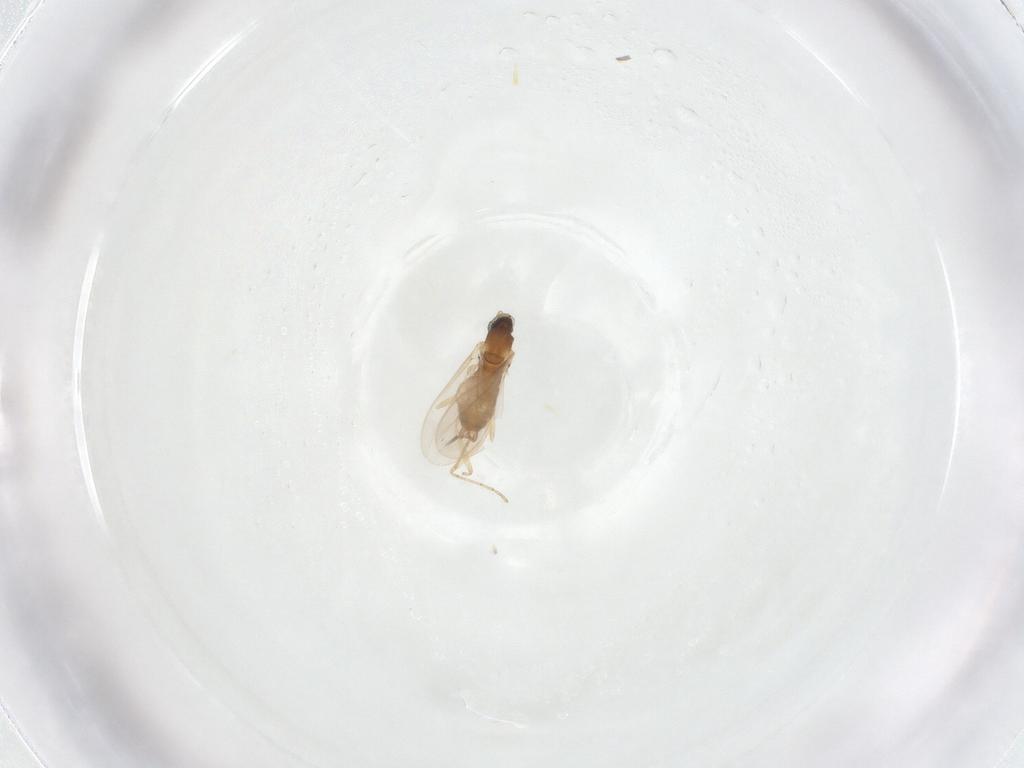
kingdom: Animalia
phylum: Arthropoda
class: Insecta
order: Diptera
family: Cecidomyiidae
